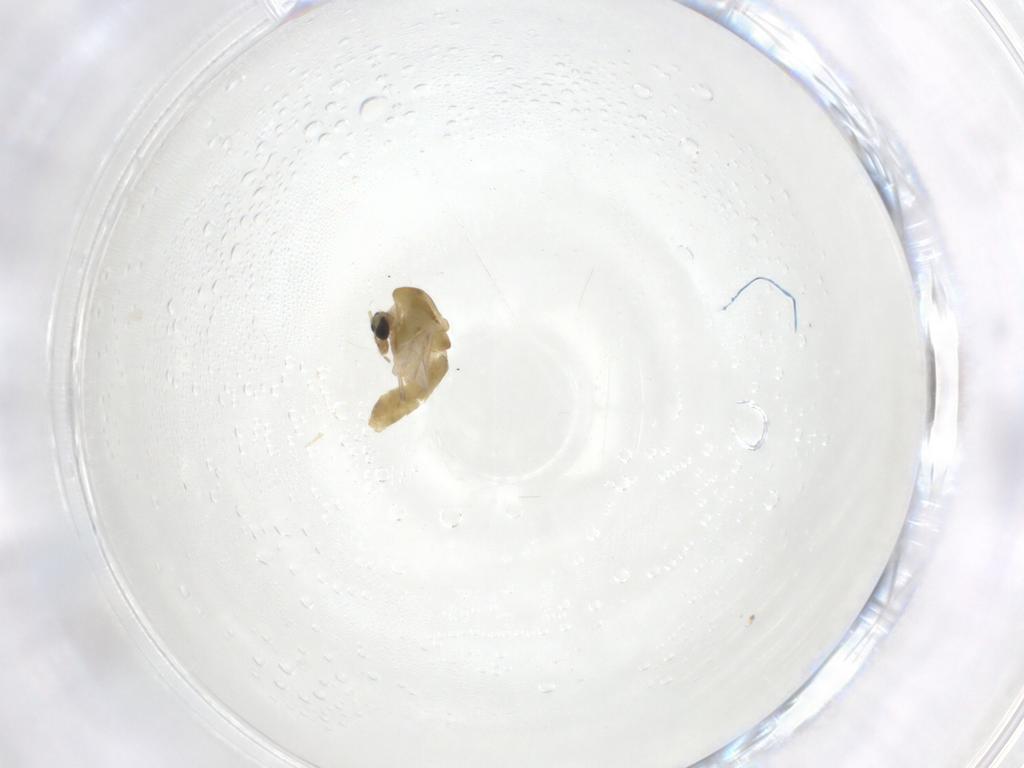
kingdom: Animalia
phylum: Arthropoda
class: Insecta
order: Diptera
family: Chironomidae
